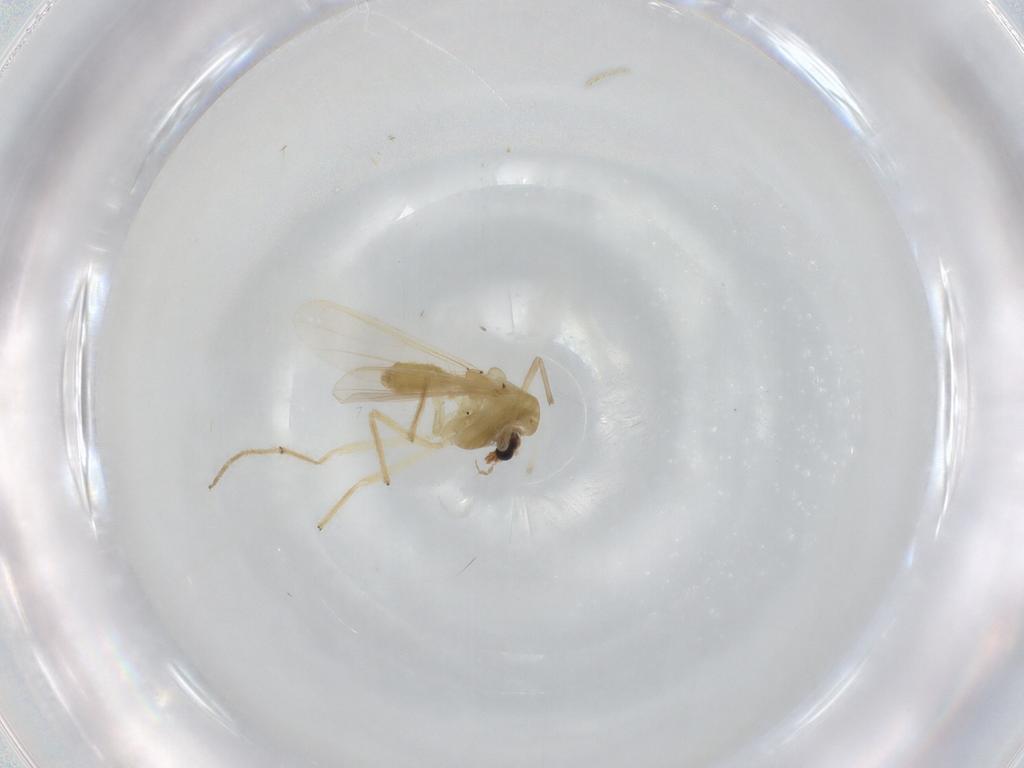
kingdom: Animalia
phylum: Arthropoda
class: Insecta
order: Diptera
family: Chironomidae
